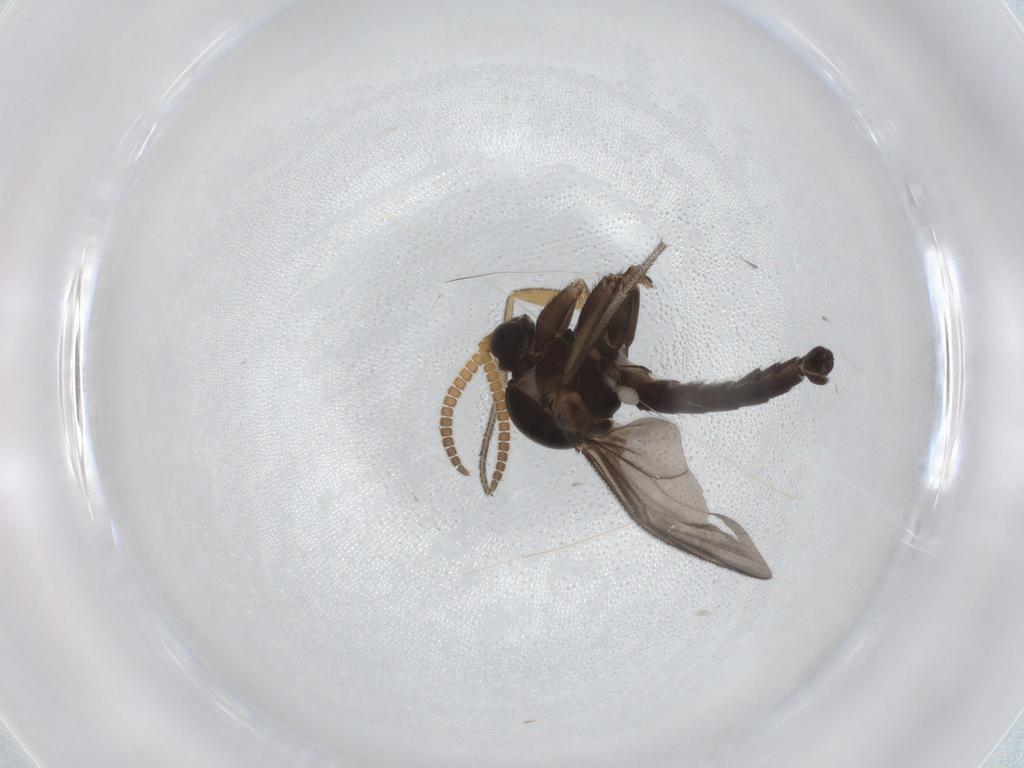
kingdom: Animalia
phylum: Arthropoda
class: Insecta
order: Diptera
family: Mycetophilidae
